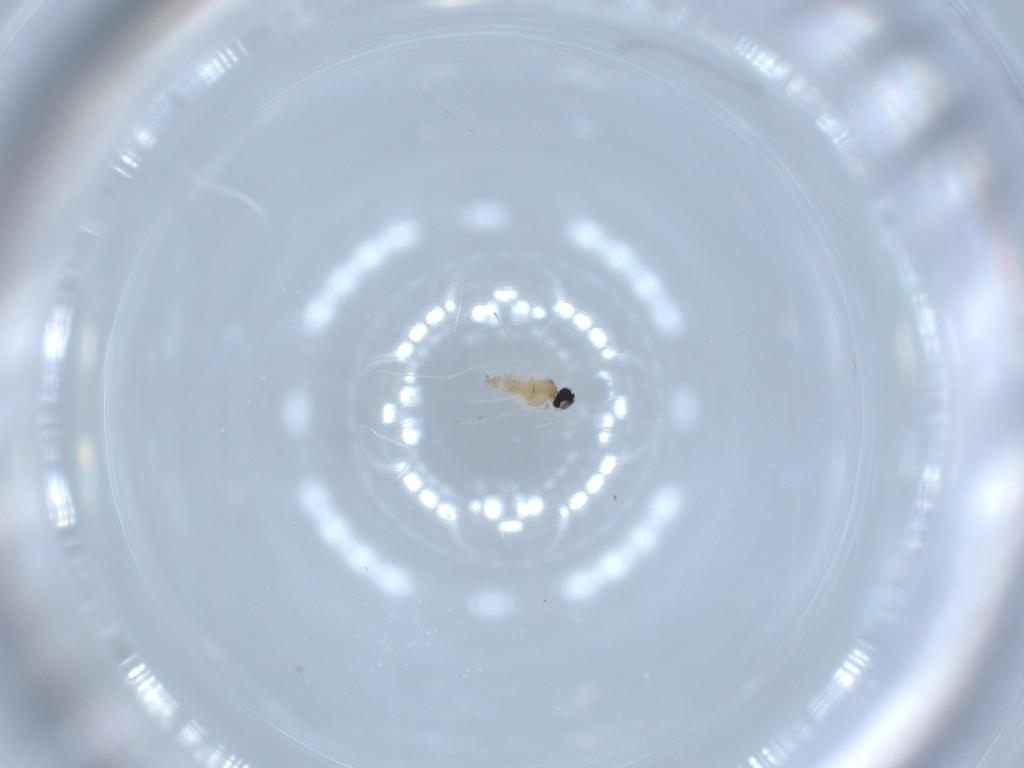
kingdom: Animalia
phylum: Arthropoda
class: Insecta
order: Diptera
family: Cecidomyiidae
